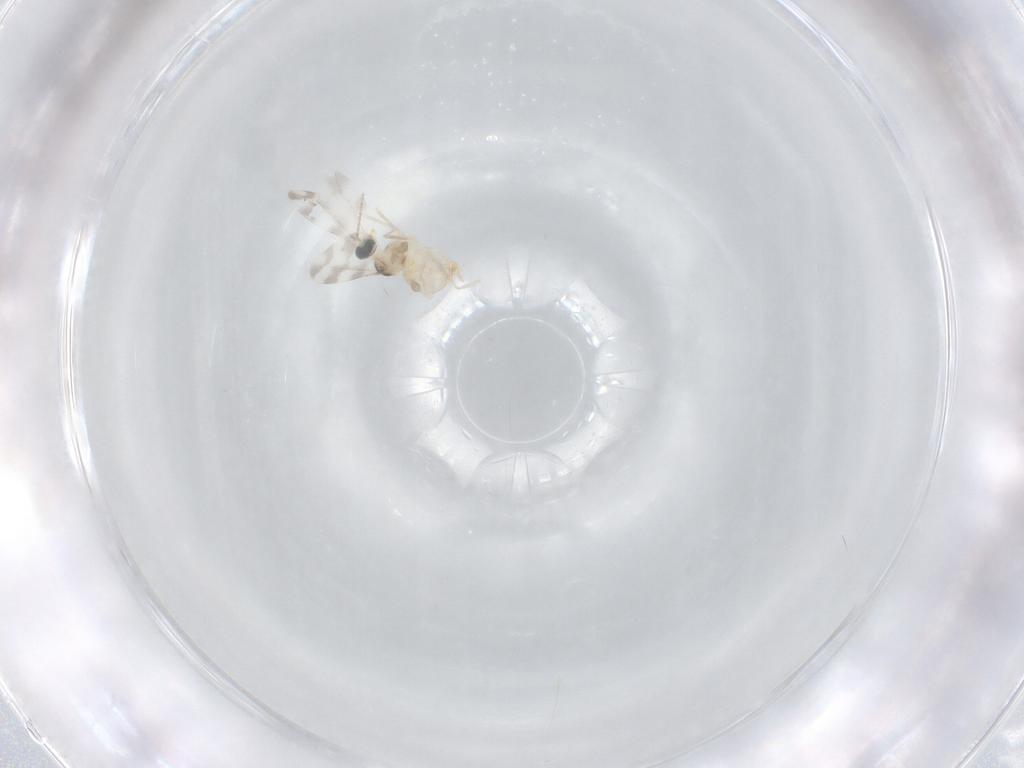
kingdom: Animalia
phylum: Arthropoda
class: Insecta
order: Diptera
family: Cecidomyiidae
